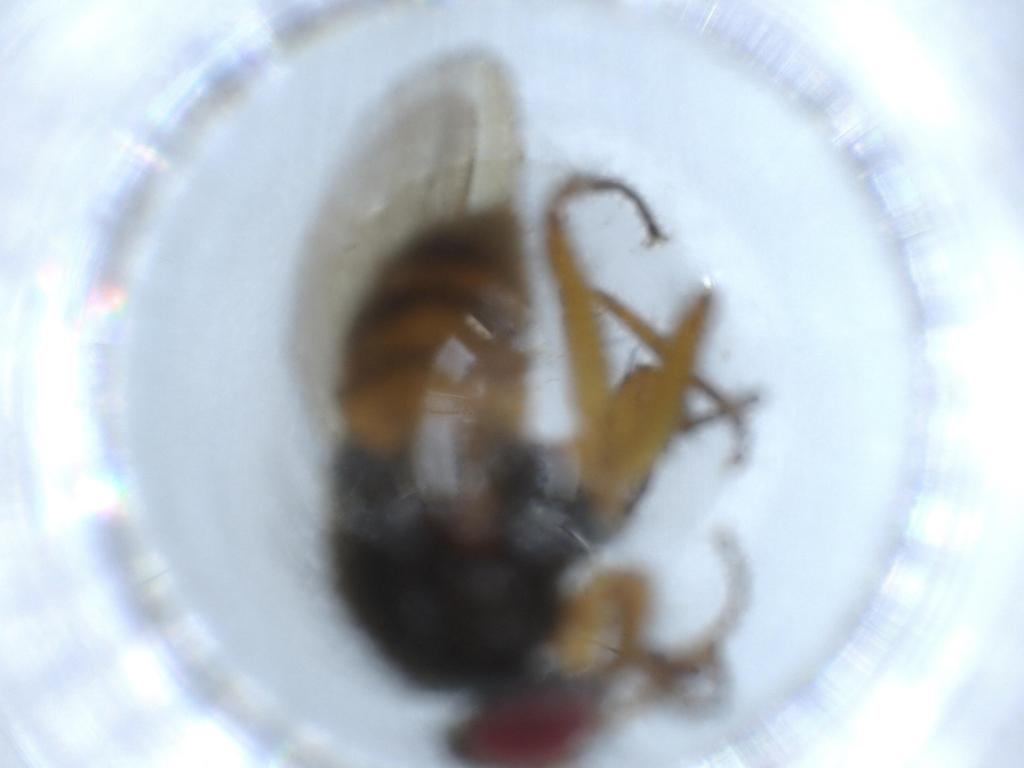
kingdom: Animalia
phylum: Arthropoda
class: Insecta
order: Diptera
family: Muscidae
